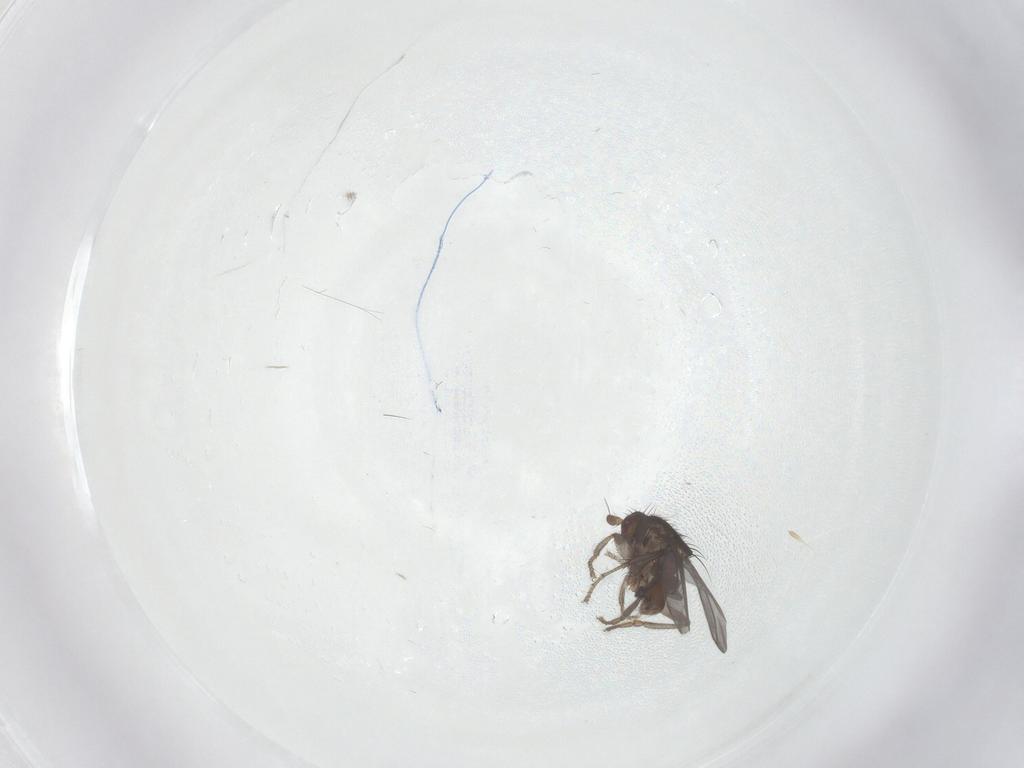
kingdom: Animalia
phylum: Arthropoda
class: Insecta
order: Diptera
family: Sphaeroceridae
